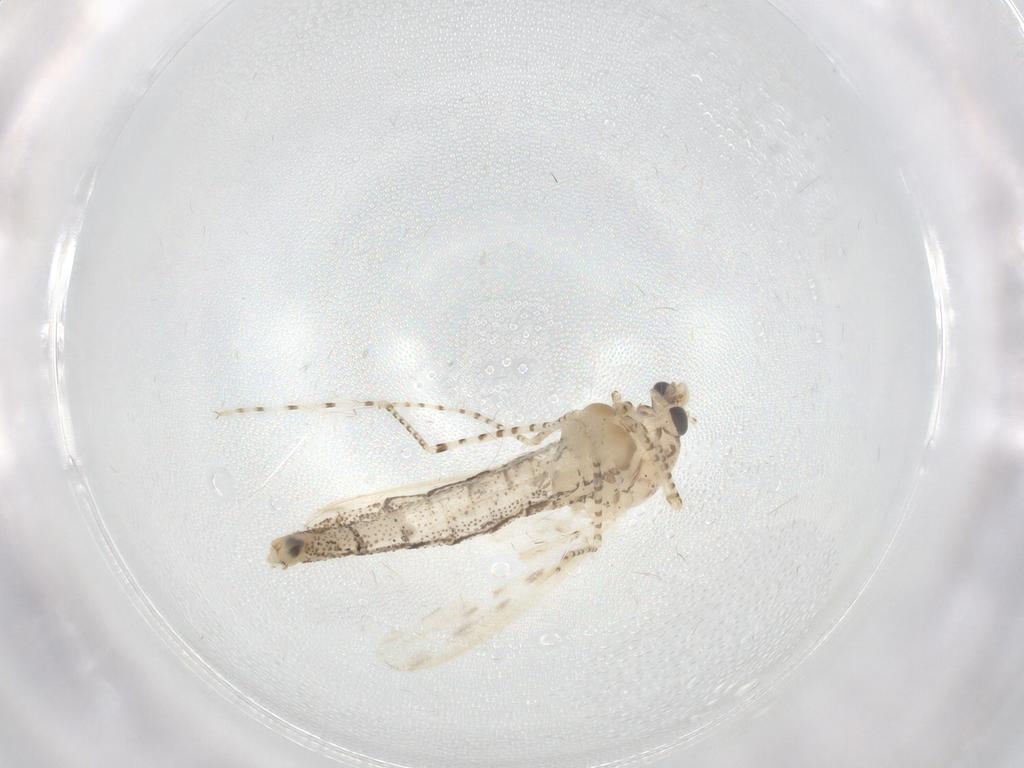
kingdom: Animalia
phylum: Arthropoda
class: Insecta
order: Diptera
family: Chaoboridae
